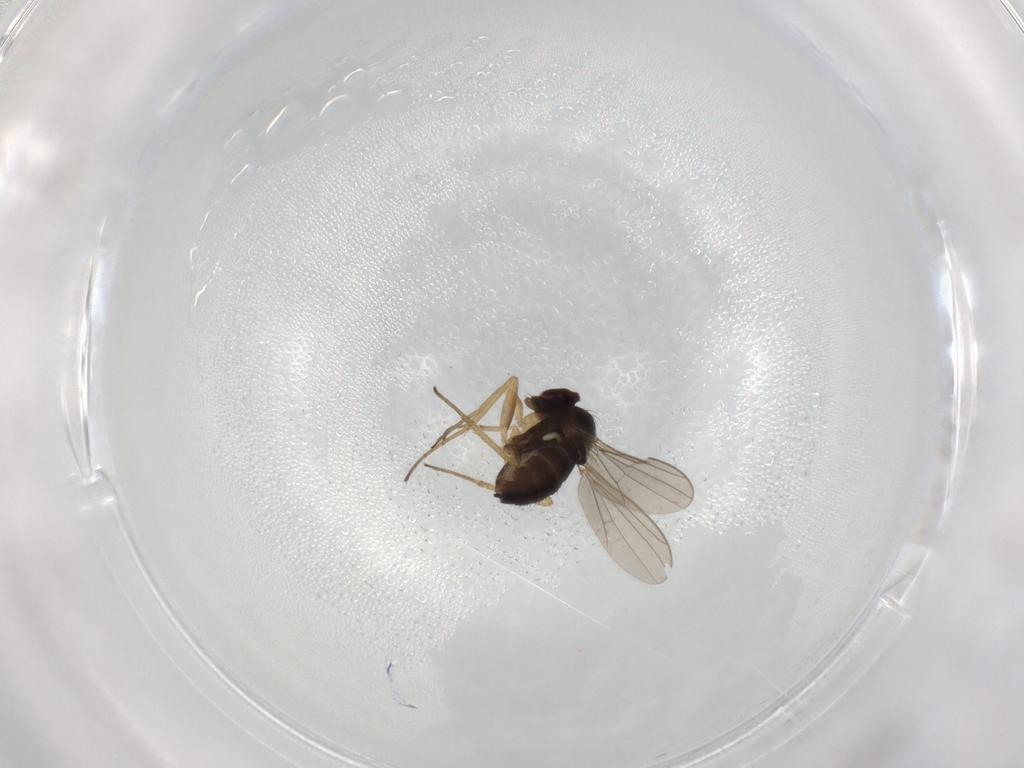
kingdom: Animalia
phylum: Arthropoda
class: Insecta
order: Diptera
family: Dolichopodidae
